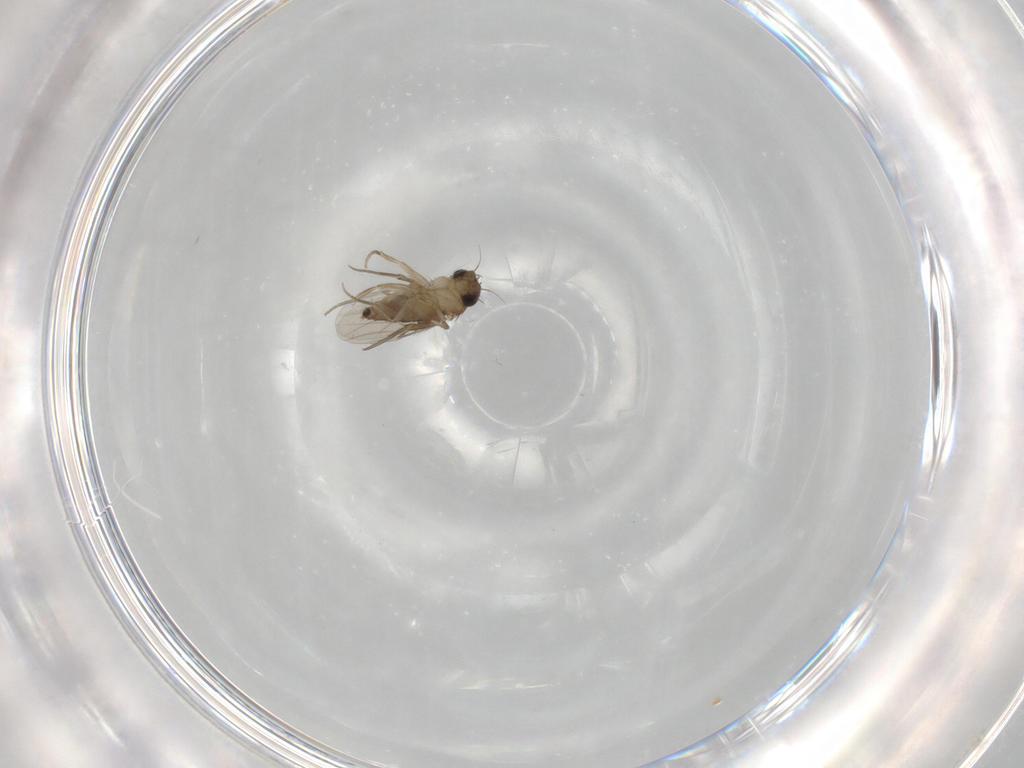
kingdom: Animalia
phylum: Arthropoda
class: Insecta
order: Diptera
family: Phoridae
